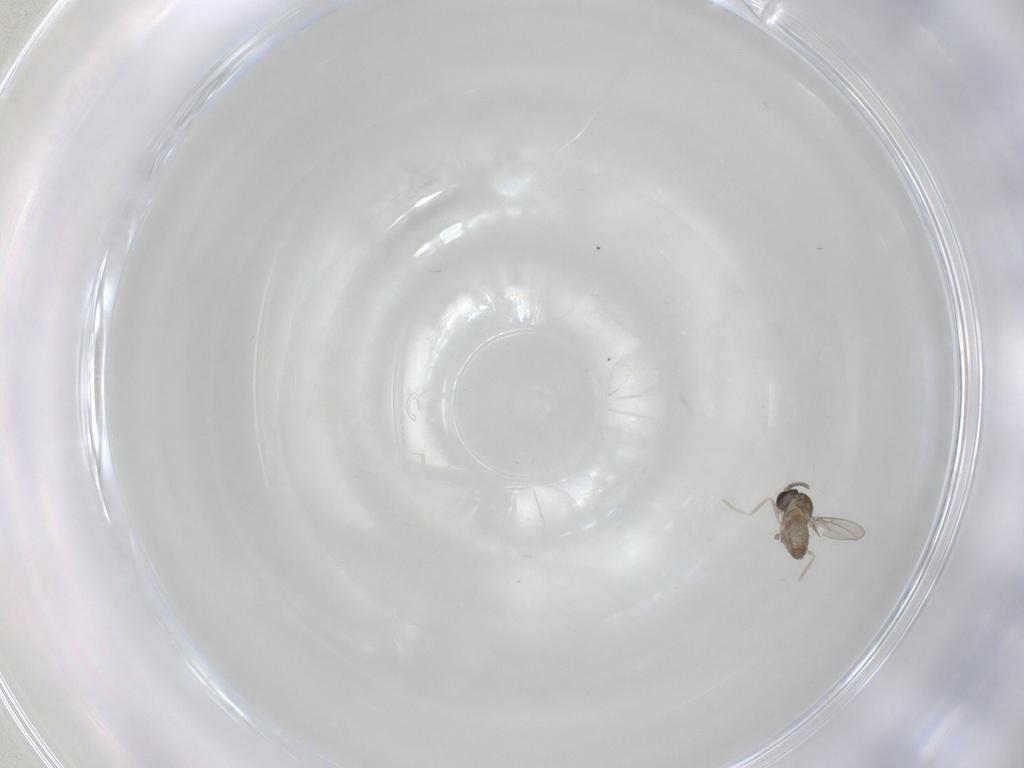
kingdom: Animalia
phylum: Arthropoda
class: Insecta
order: Diptera
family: Cecidomyiidae
